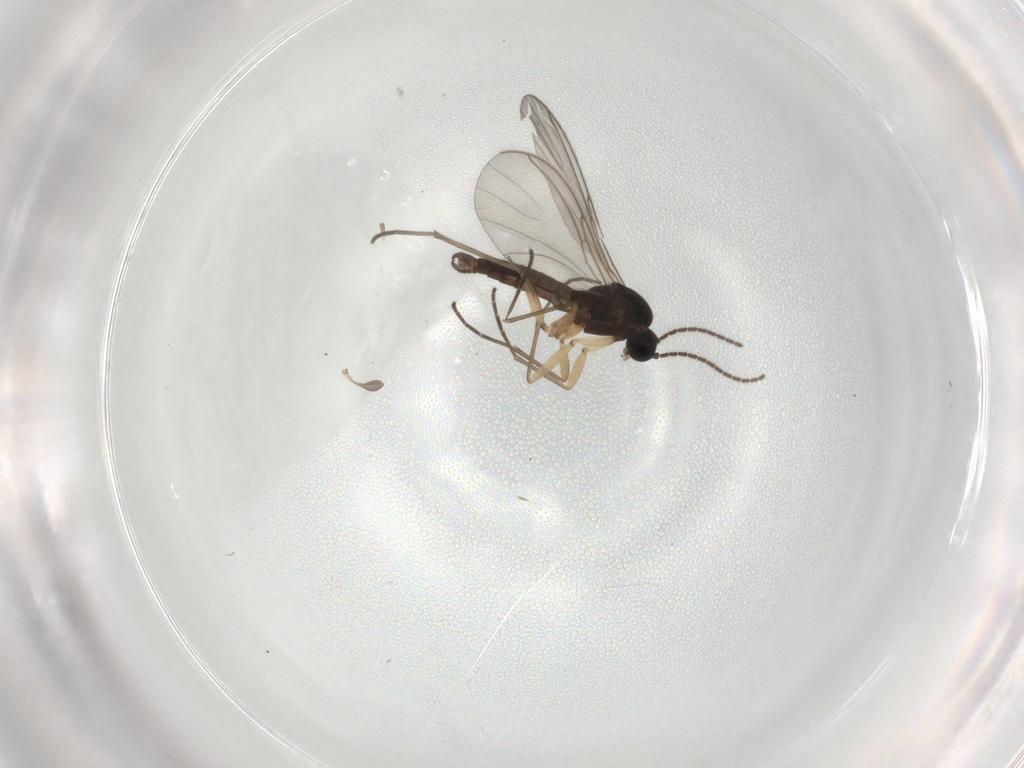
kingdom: Animalia
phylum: Arthropoda
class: Insecta
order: Diptera
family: Sciaridae
